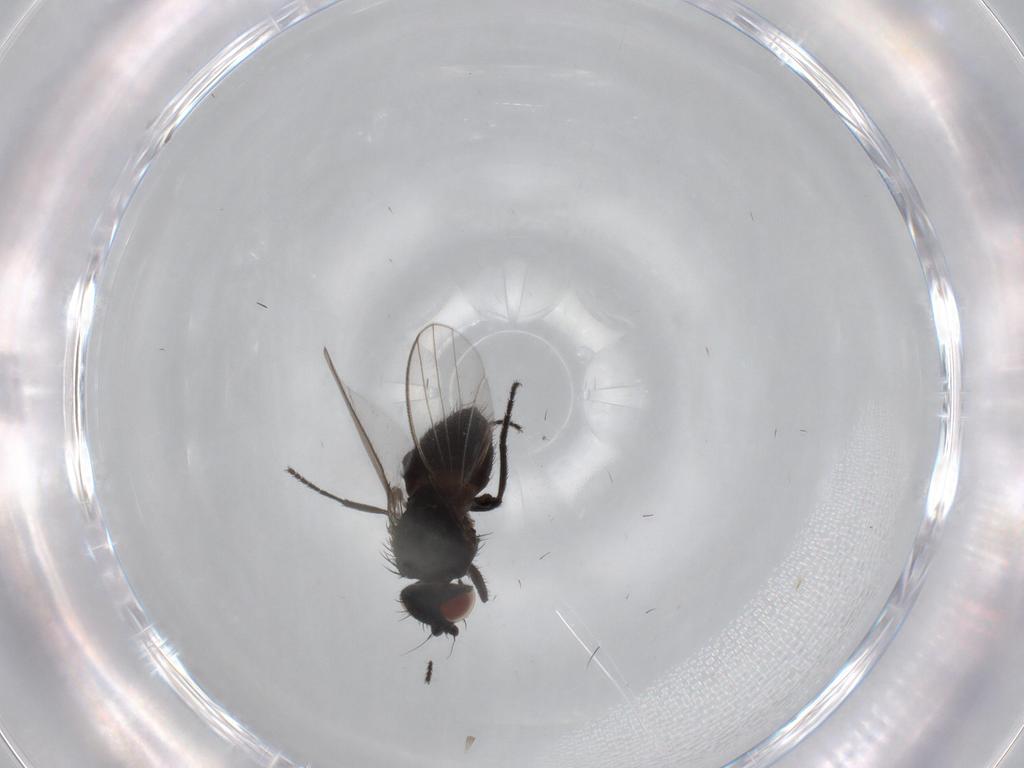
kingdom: Animalia
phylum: Arthropoda
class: Insecta
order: Diptera
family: Milichiidae
